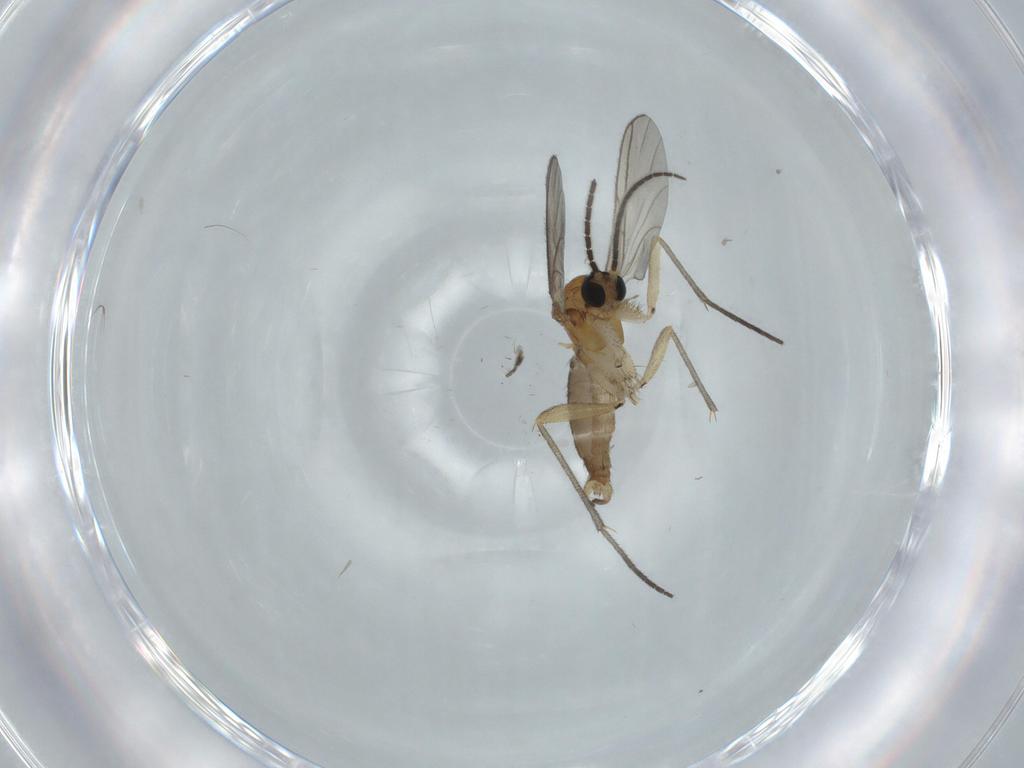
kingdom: Animalia
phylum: Arthropoda
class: Insecta
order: Diptera
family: Sciaridae
